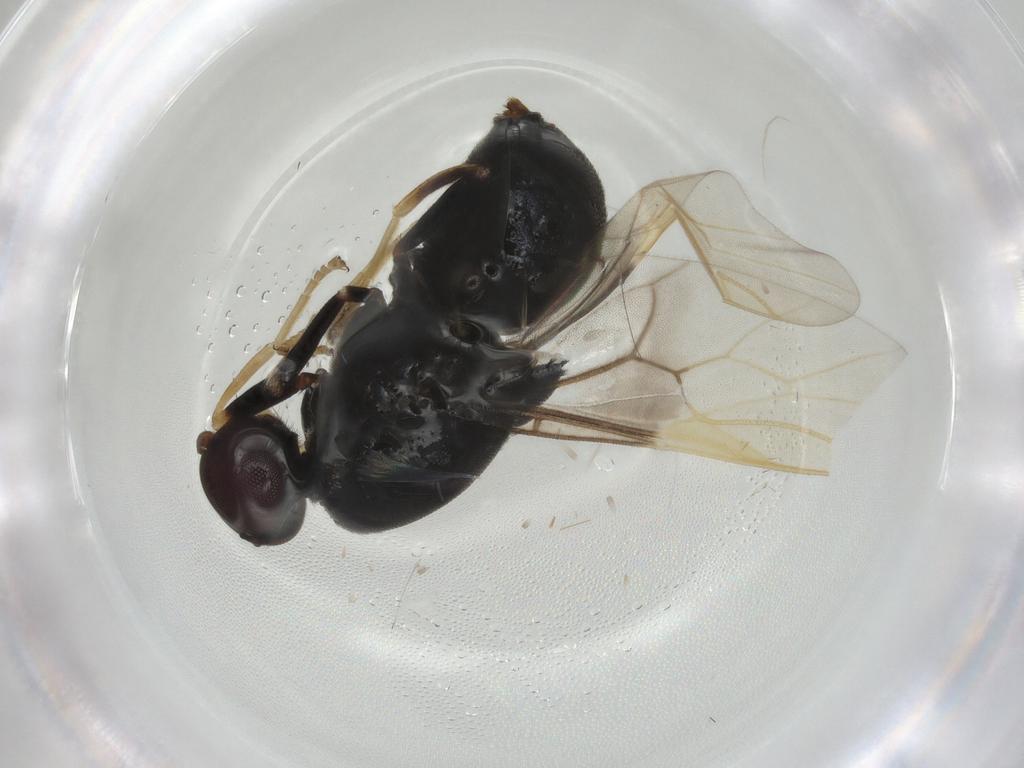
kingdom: Animalia
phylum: Arthropoda
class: Insecta
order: Diptera
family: Stratiomyidae
